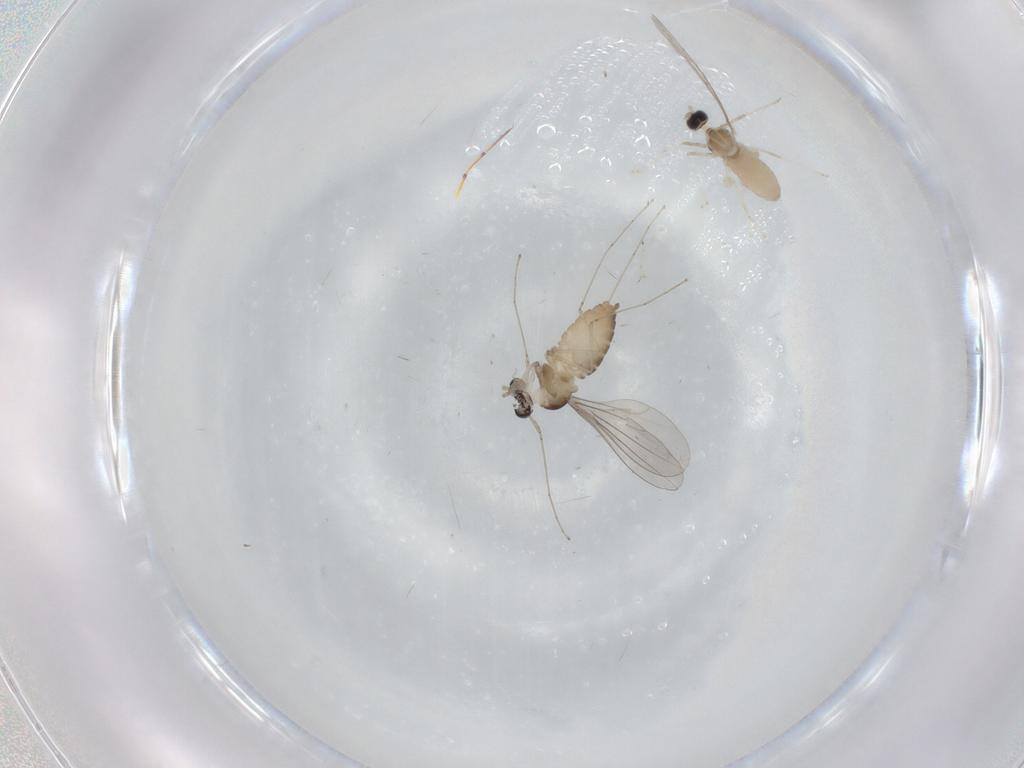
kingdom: Animalia
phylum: Arthropoda
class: Insecta
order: Diptera
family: Cecidomyiidae
